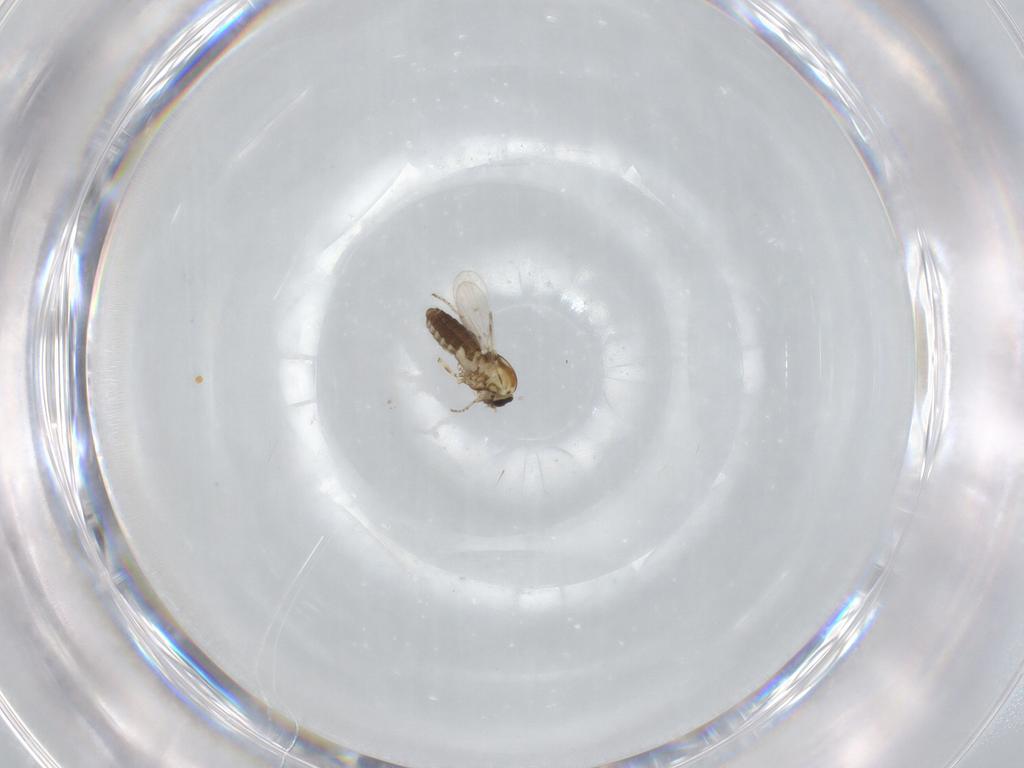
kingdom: Animalia
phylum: Arthropoda
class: Insecta
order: Diptera
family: Ceratopogonidae
